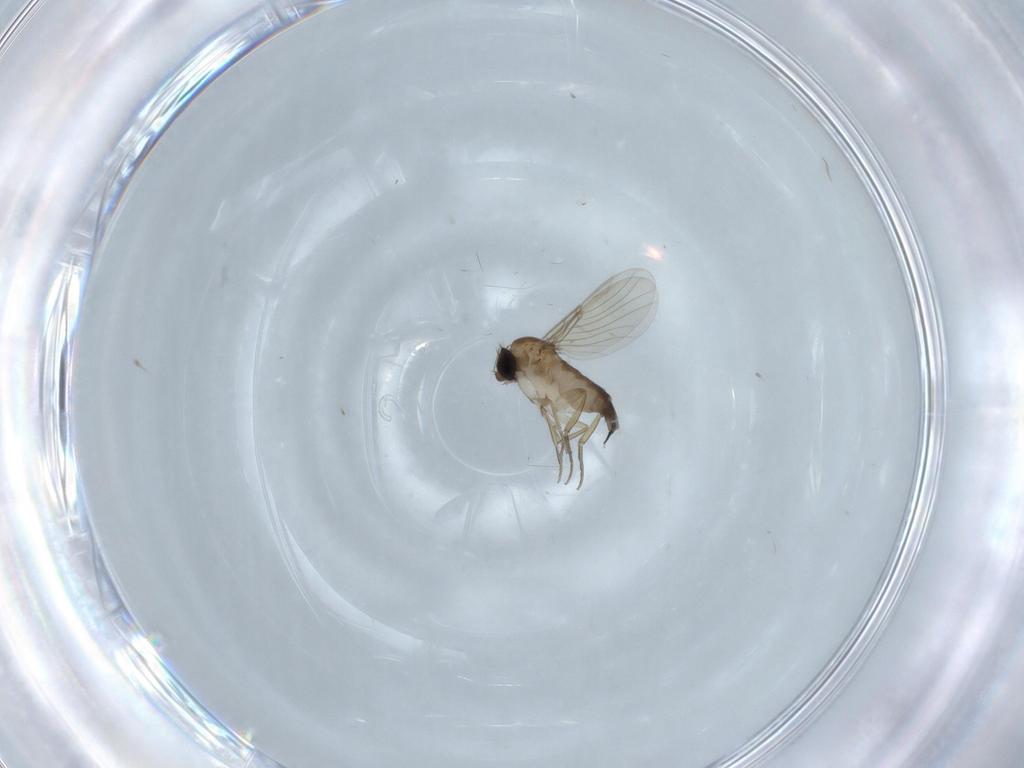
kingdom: Animalia
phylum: Arthropoda
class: Insecta
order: Diptera
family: Phoridae
